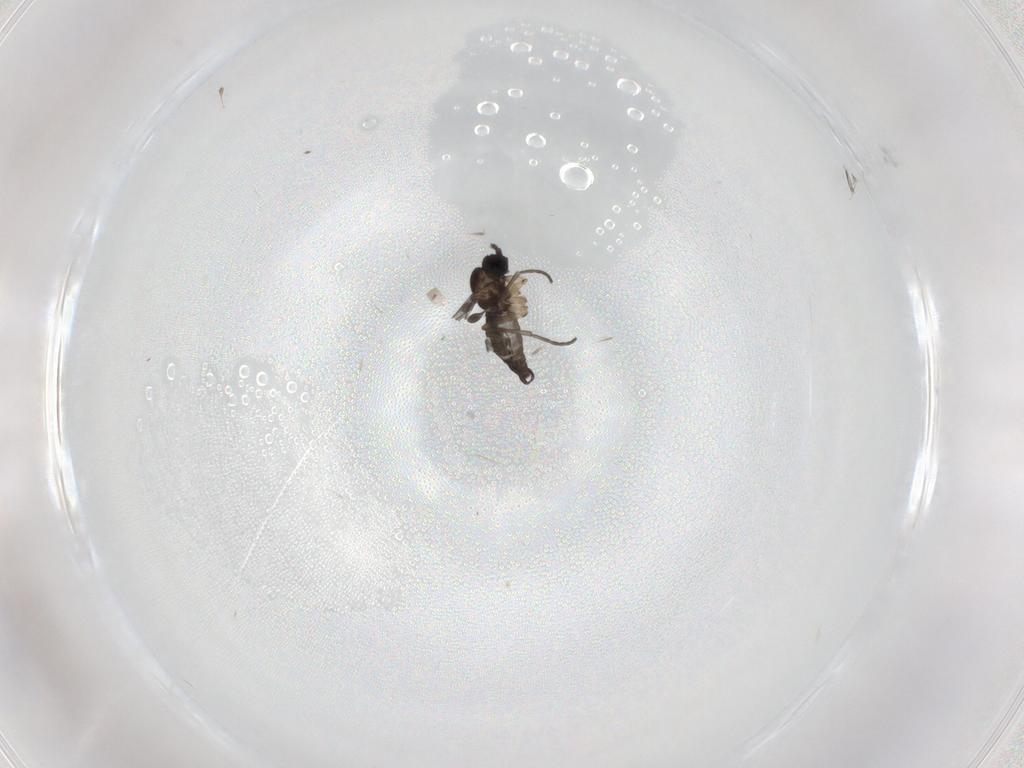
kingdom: Animalia
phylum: Arthropoda
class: Insecta
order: Diptera
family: Sciaridae
